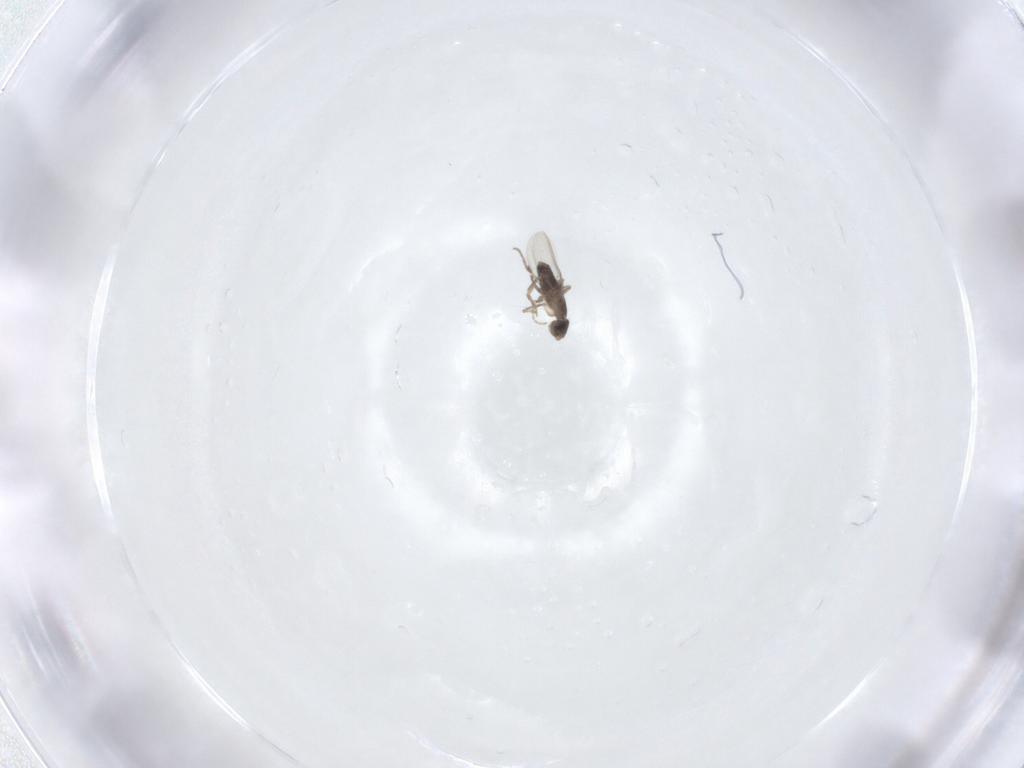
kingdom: Animalia
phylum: Arthropoda
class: Insecta
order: Diptera
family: Phoridae
